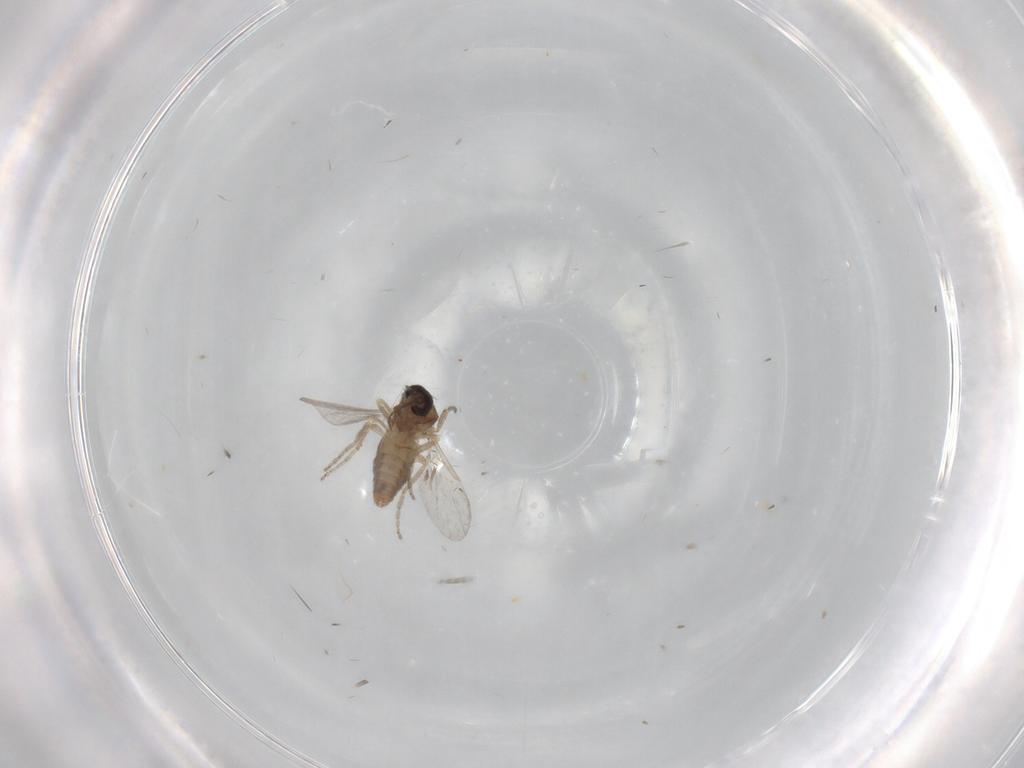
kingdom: Animalia
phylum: Arthropoda
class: Insecta
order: Diptera
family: Ceratopogonidae
